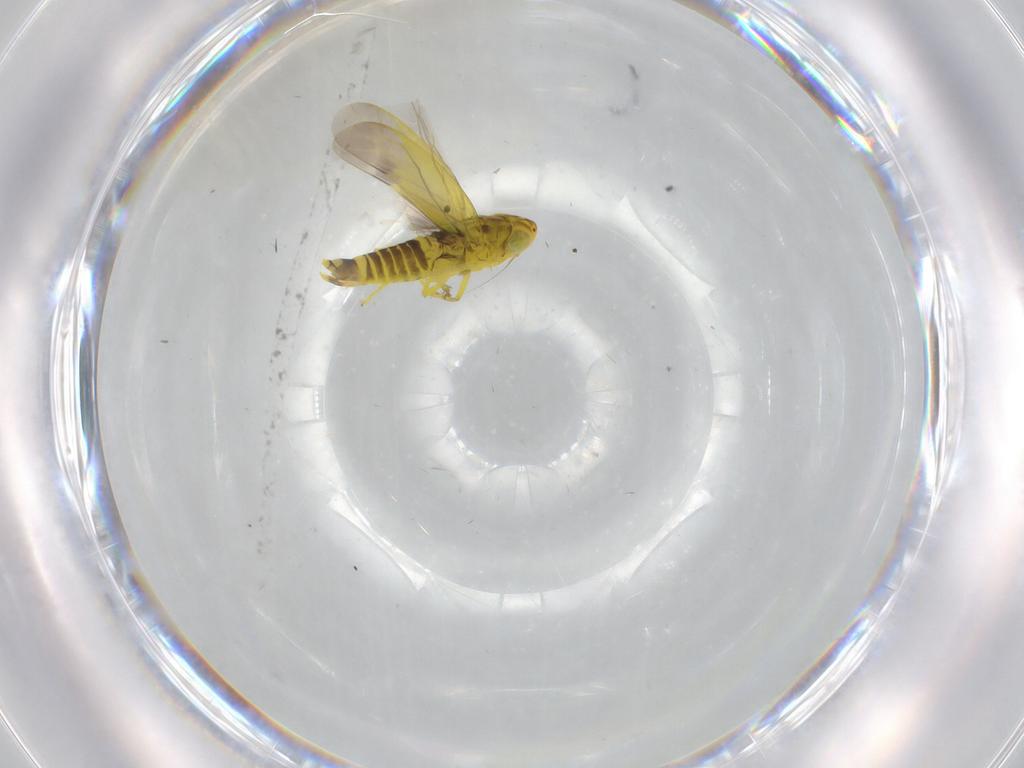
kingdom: Animalia
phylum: Arthropoda
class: Insecta
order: Hemiptera
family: Cicadellidae
